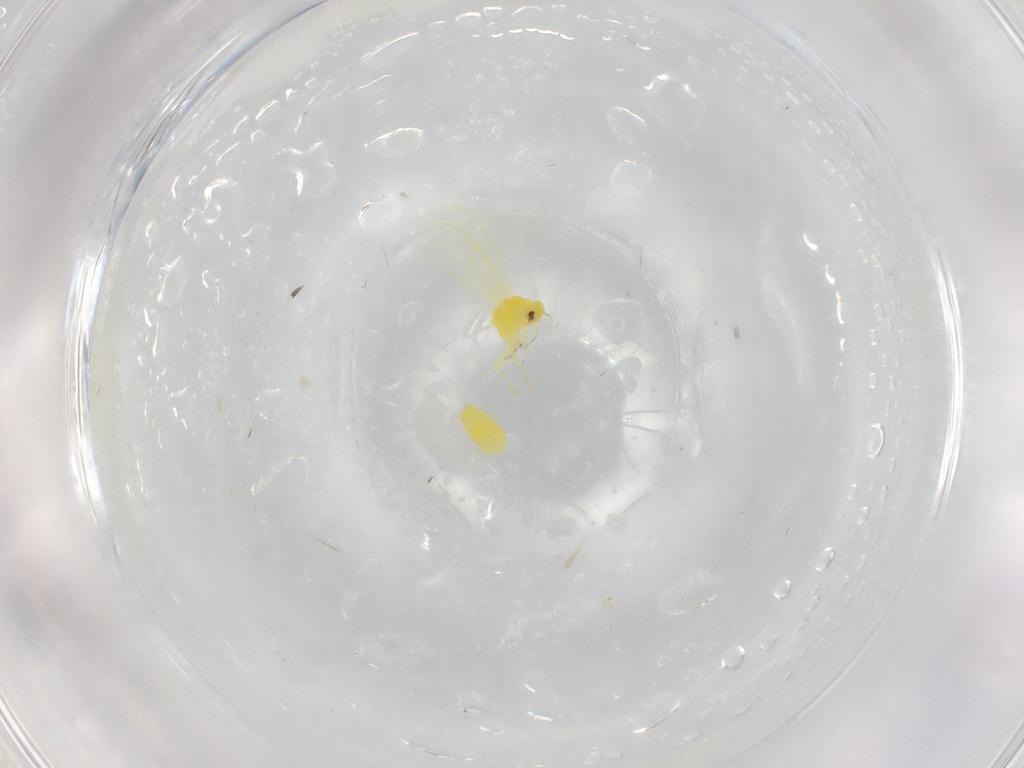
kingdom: Animalia
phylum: Arthropoda
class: Insecta
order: Hemiptera
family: Aleyrodidae
